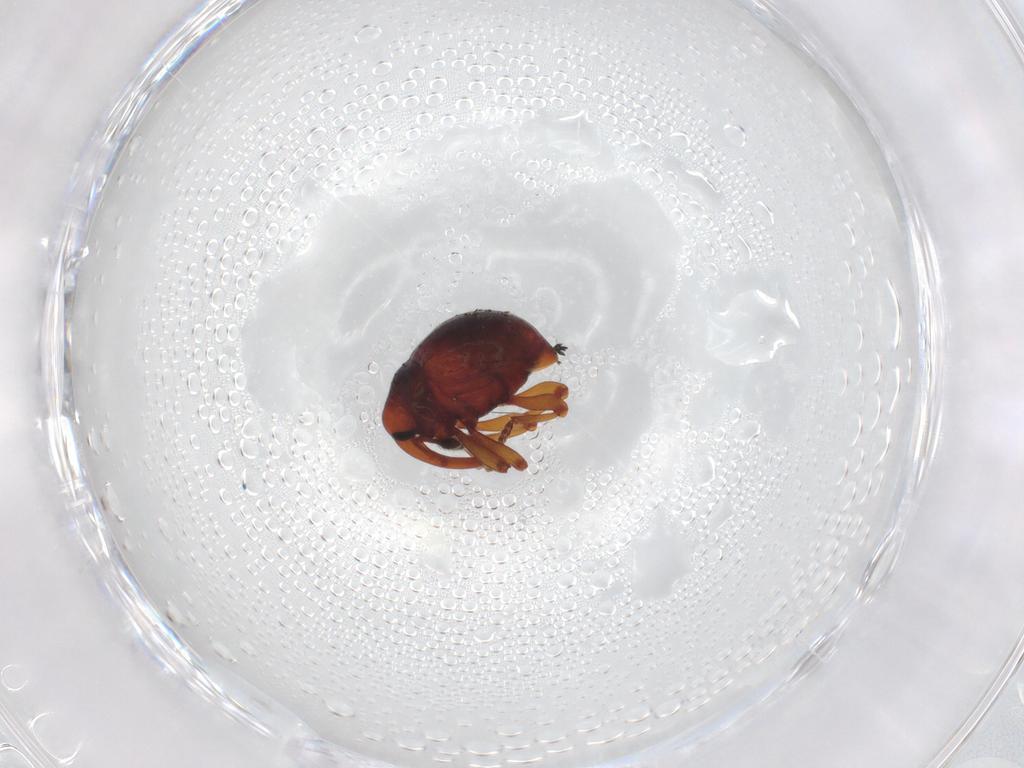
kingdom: Animalia
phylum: Arthropoda
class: Insecta
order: Coleoptera
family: Curculionidae
